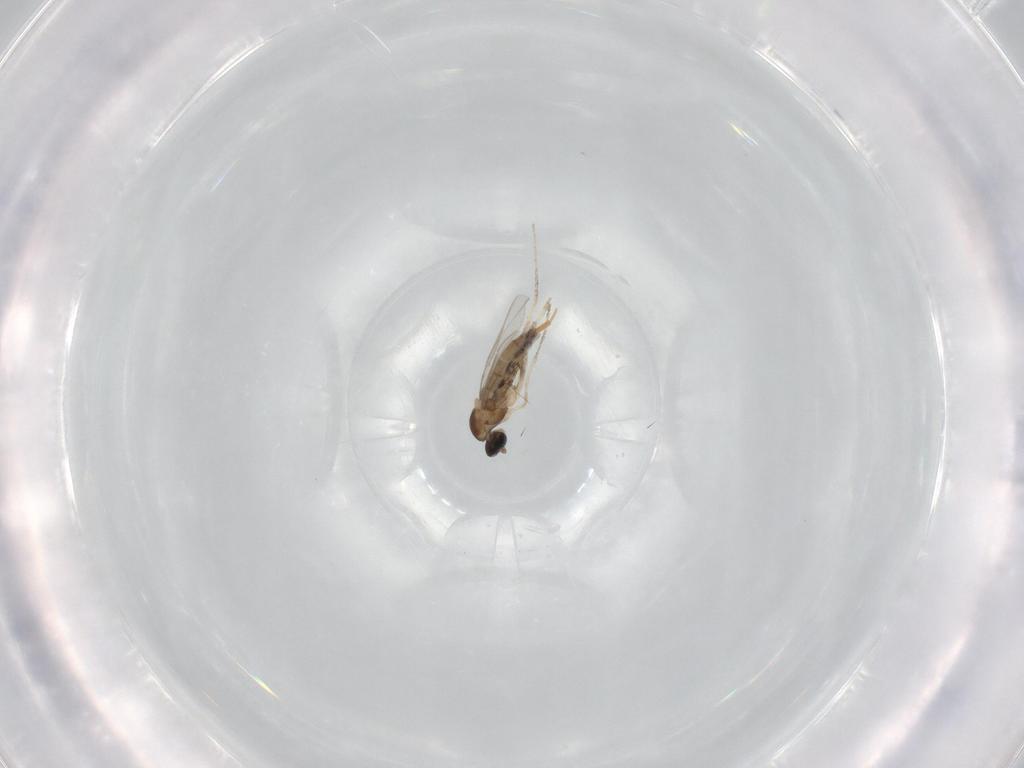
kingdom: Animalia
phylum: Arthropoda
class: Insecta
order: Diptera
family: Cecidomyiidae
